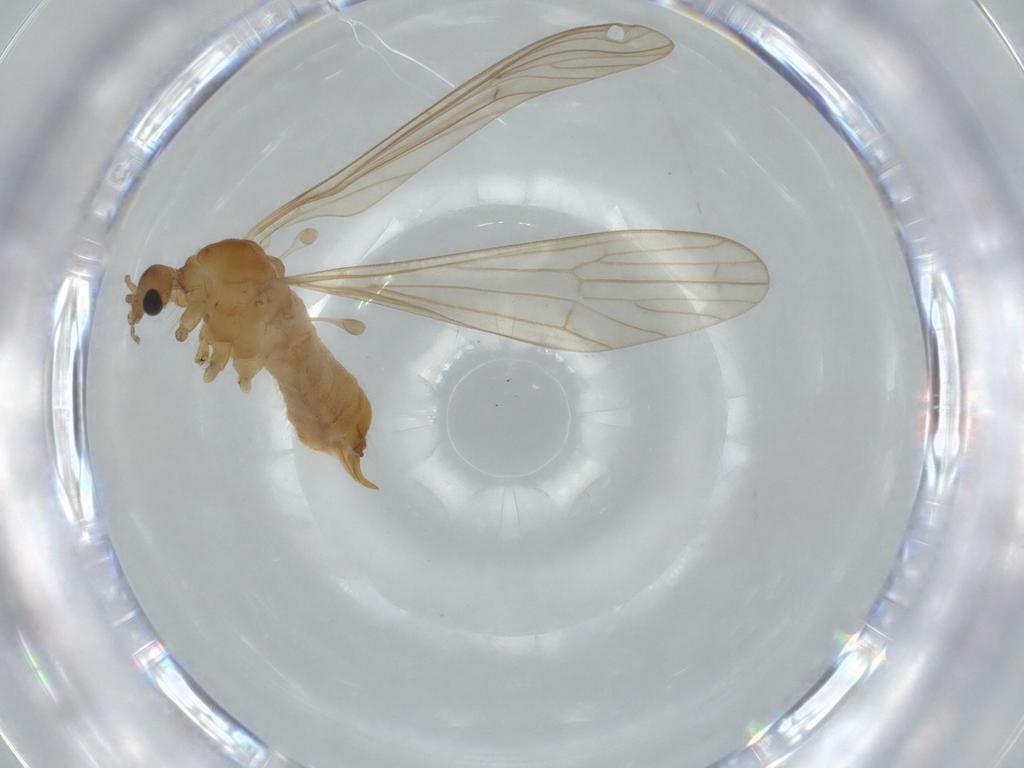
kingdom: Animalia
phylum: Arthropoda
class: Insecta
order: Diptera
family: Limoniidae
